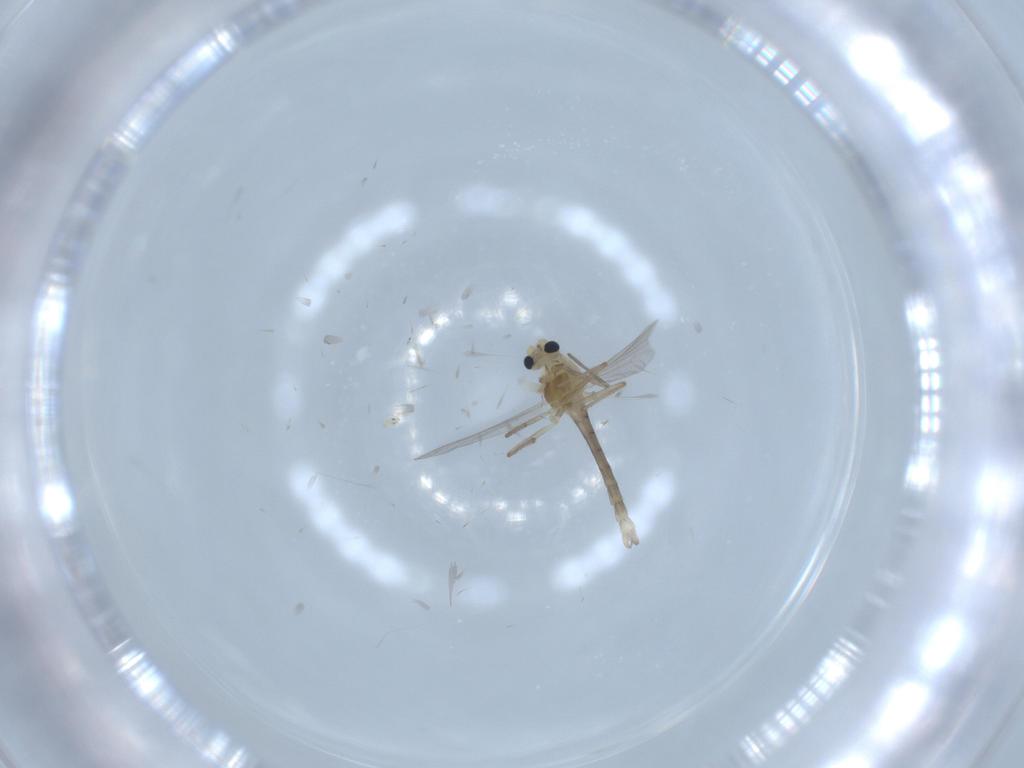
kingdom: Animalia
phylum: Arthropoda
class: Insecta
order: Diptera
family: Chironomidae
